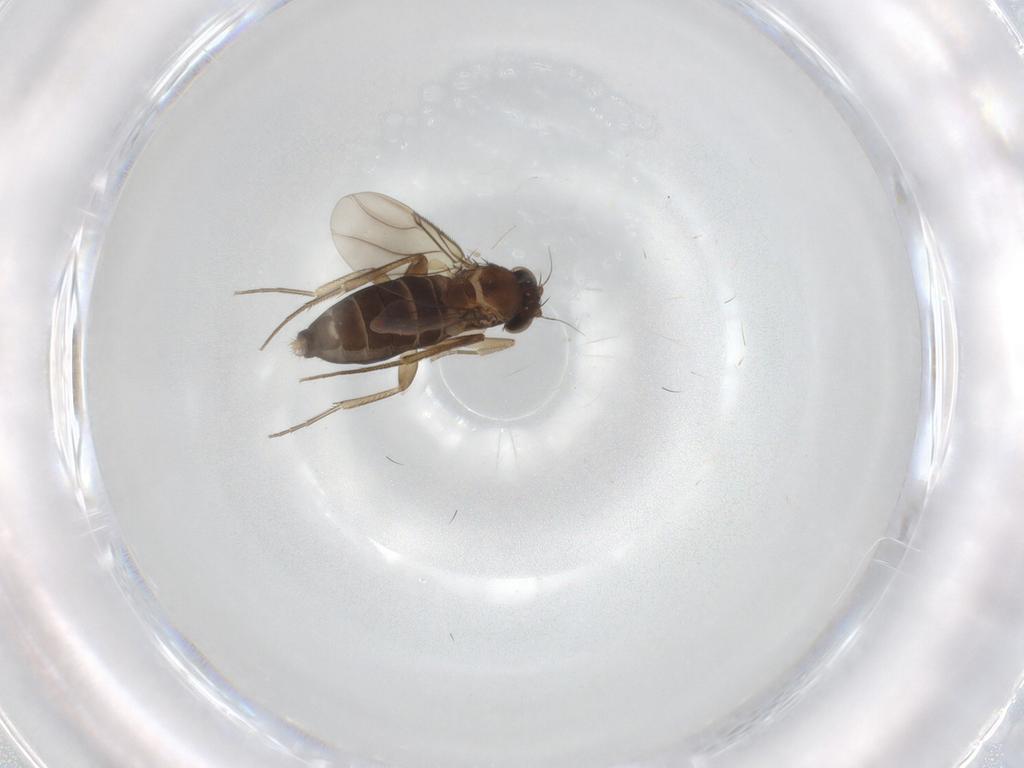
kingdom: Animalia
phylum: Arthropoda
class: Insecta
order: Diptera
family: Phoridae
